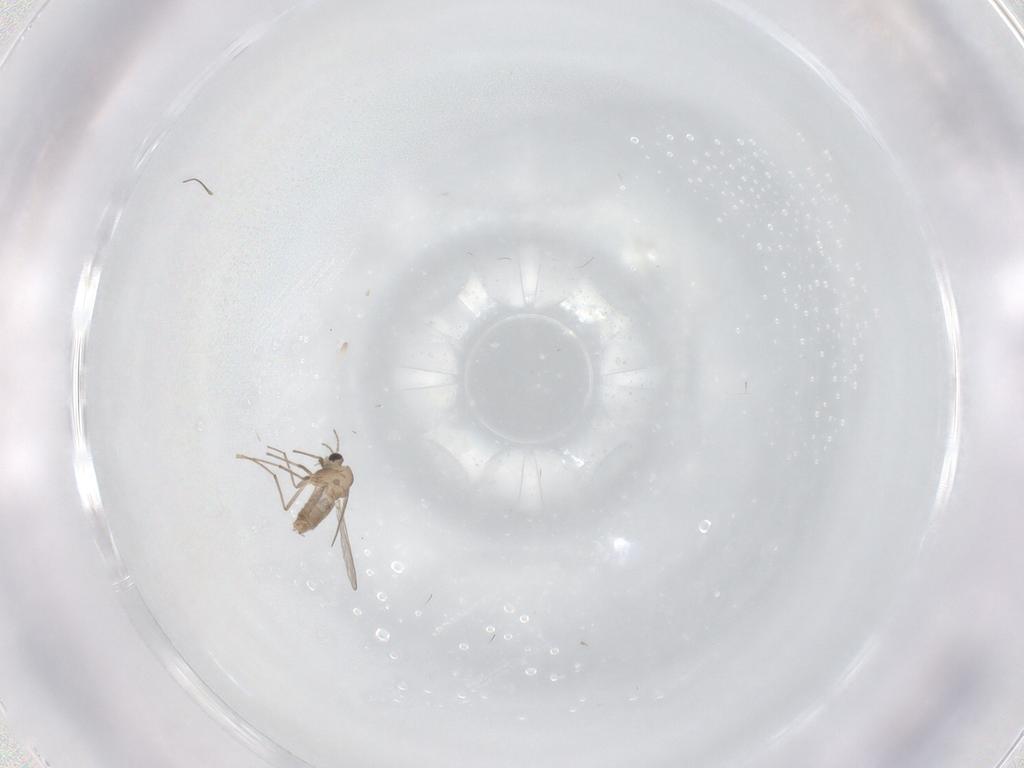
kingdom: Animalia
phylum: Arthropoda
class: Insecta
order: Diptera
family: Chironomidae
